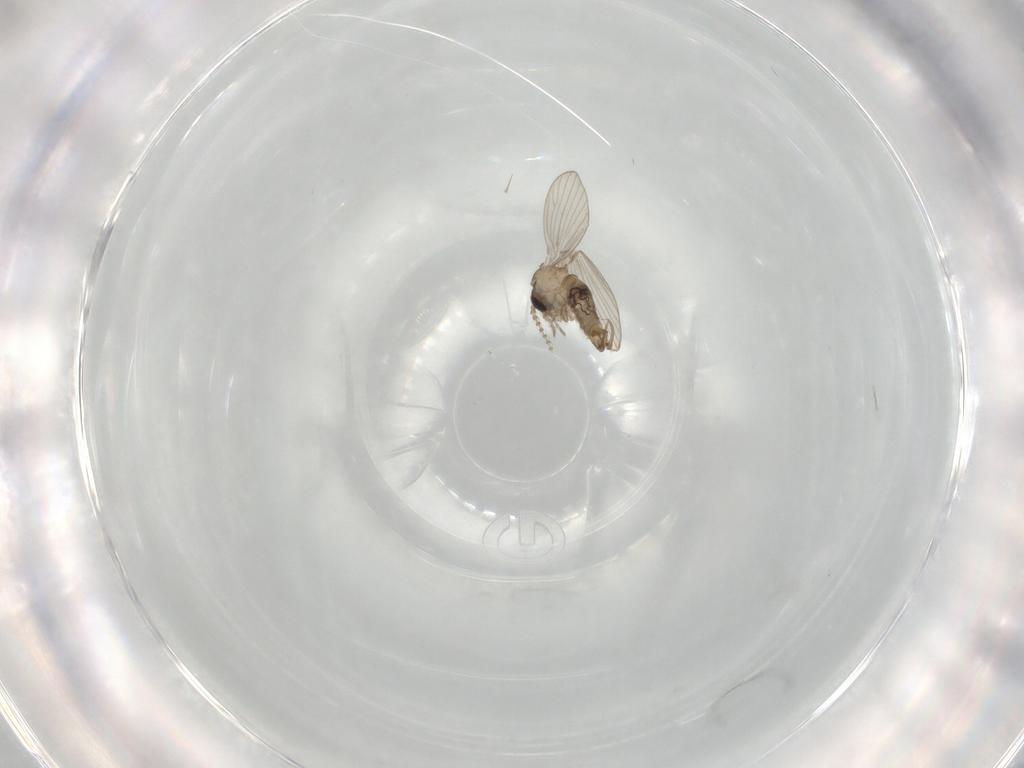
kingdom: Animalia
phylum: Arthropoda
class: Insecta
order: Diptera
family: Psychodidae
